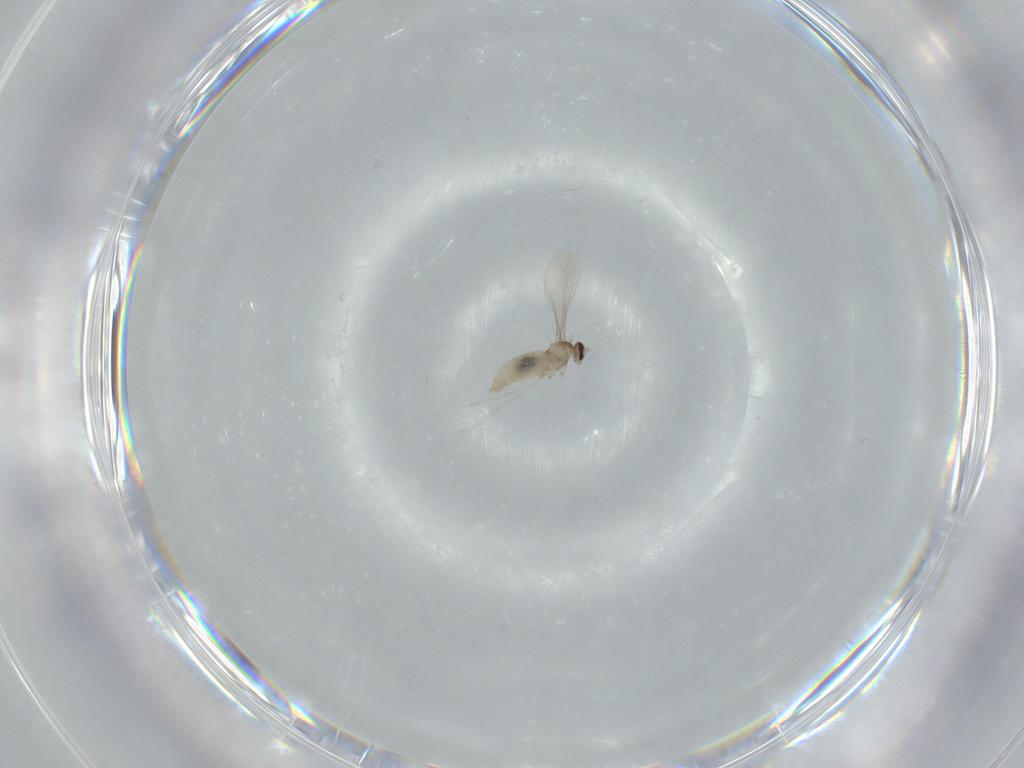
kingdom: Animalia
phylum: Arthropoda
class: Insecta
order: Diptera
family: Cecidomyiidae
